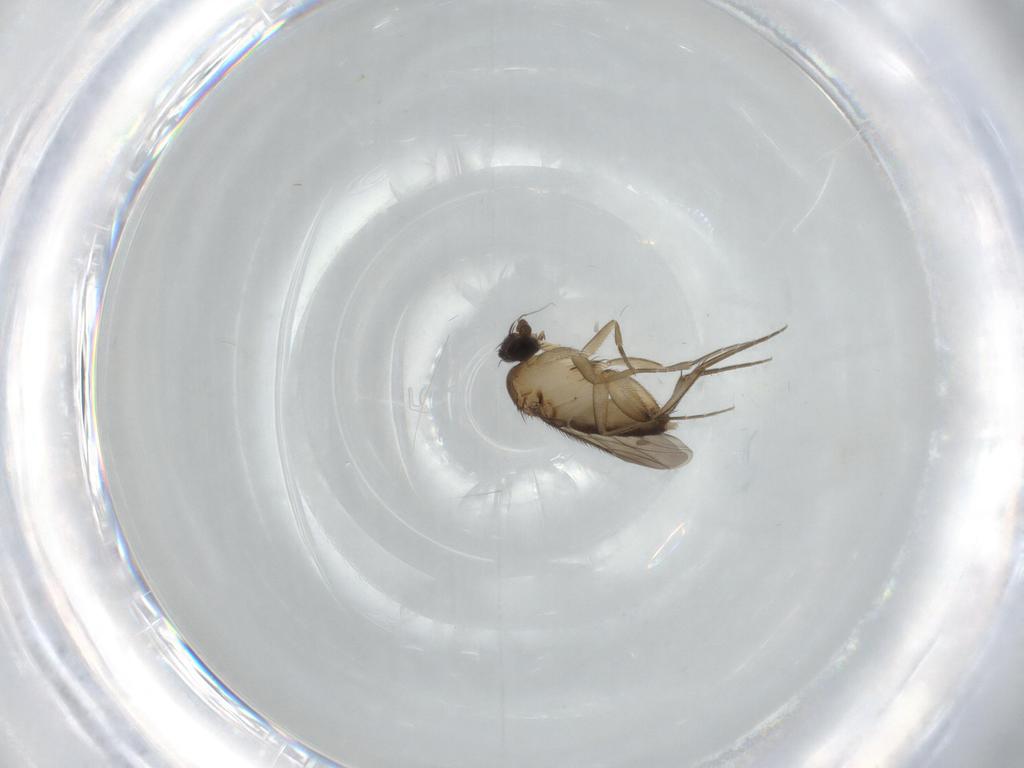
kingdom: Animalia
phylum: Arthropoda
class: Insecta
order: Diptera
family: Phoridae
